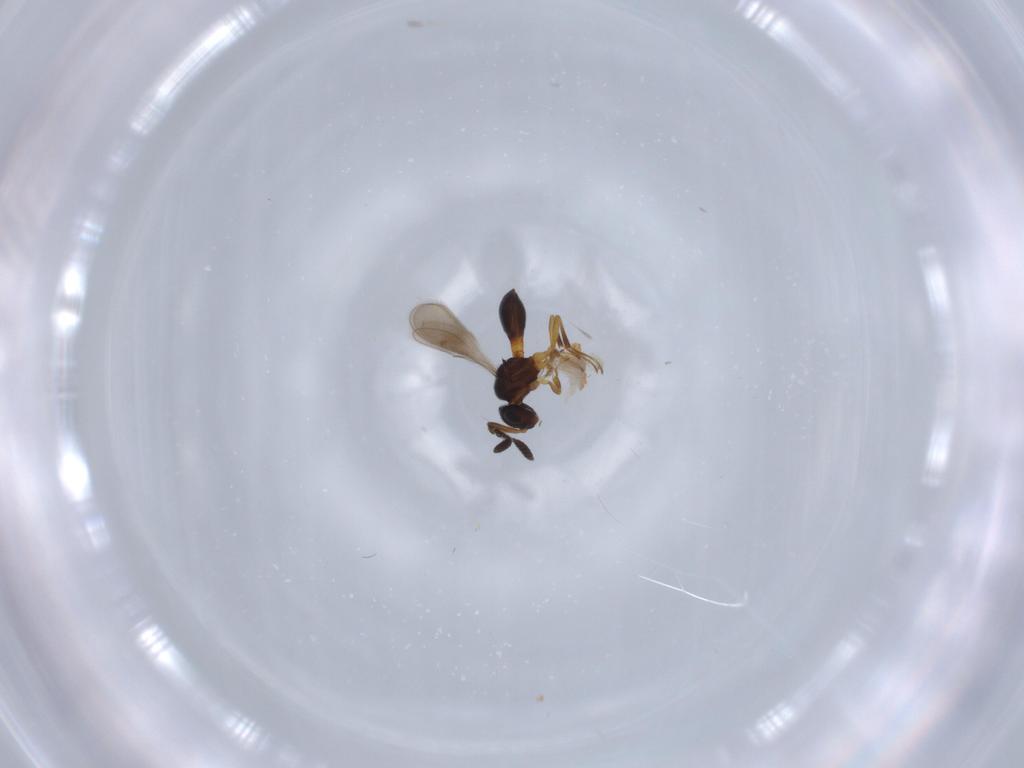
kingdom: Animalia
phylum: Arthropoda
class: Insecta
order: Hymenoptera
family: Scelionidae
